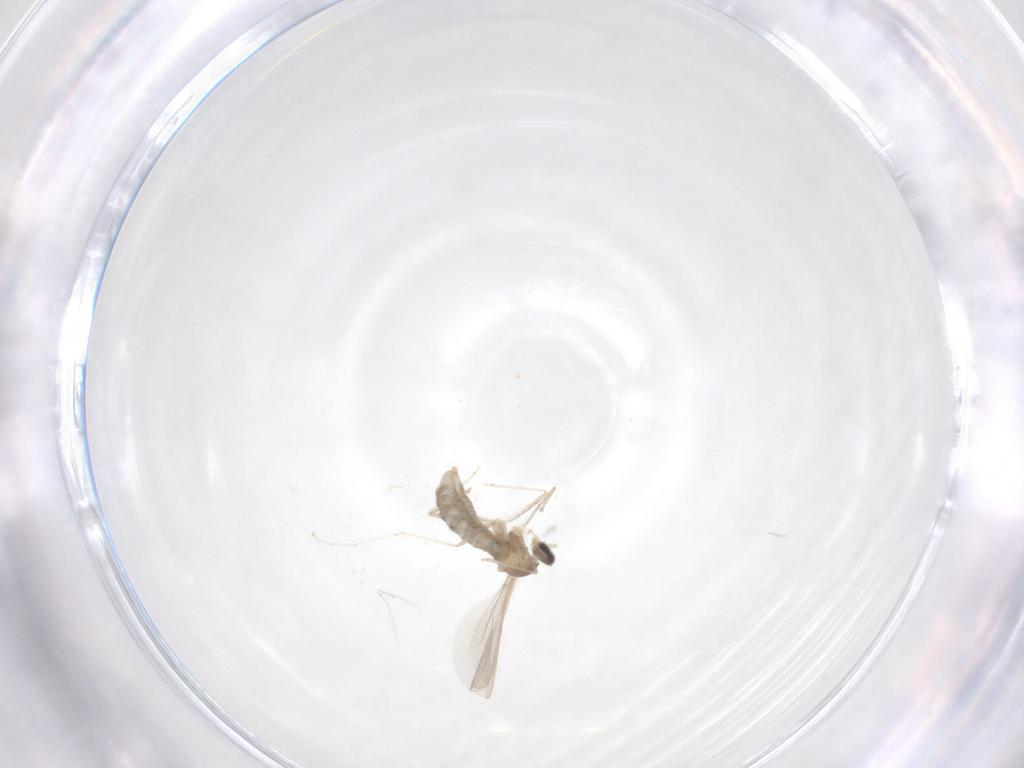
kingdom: Animalia
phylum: Arthropoda
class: Insecta
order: Diptera
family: Cecidomyiidae
